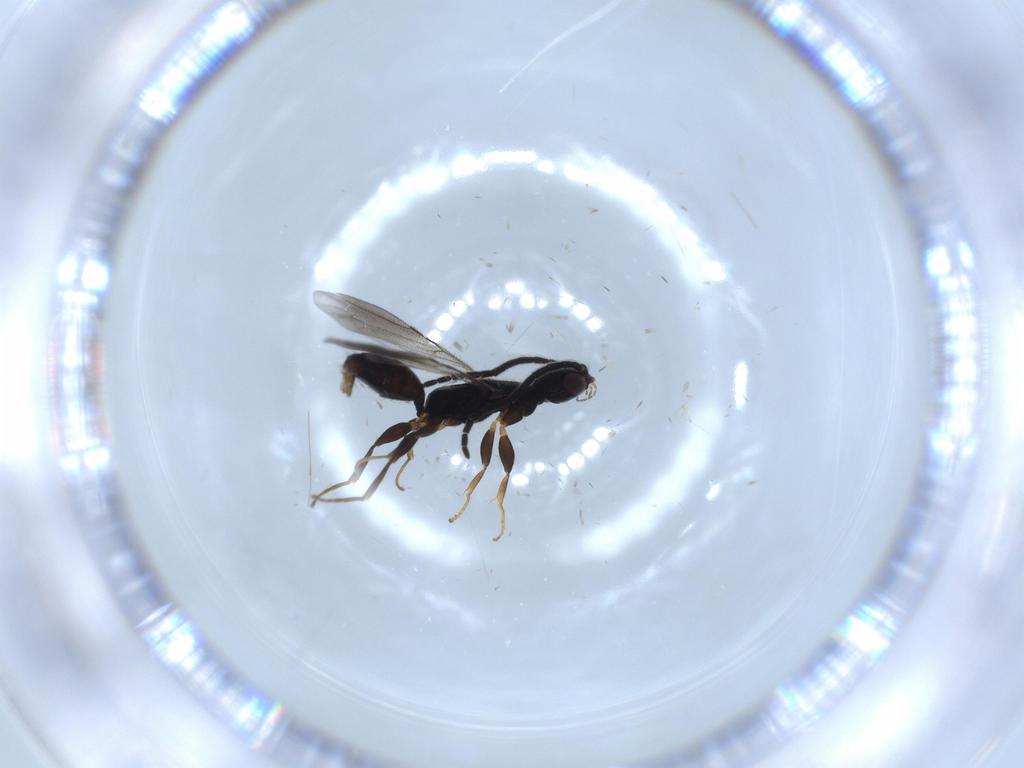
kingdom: Animalia
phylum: Arthropoda
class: Insecta
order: Hymenoptera
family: Bethylidae
